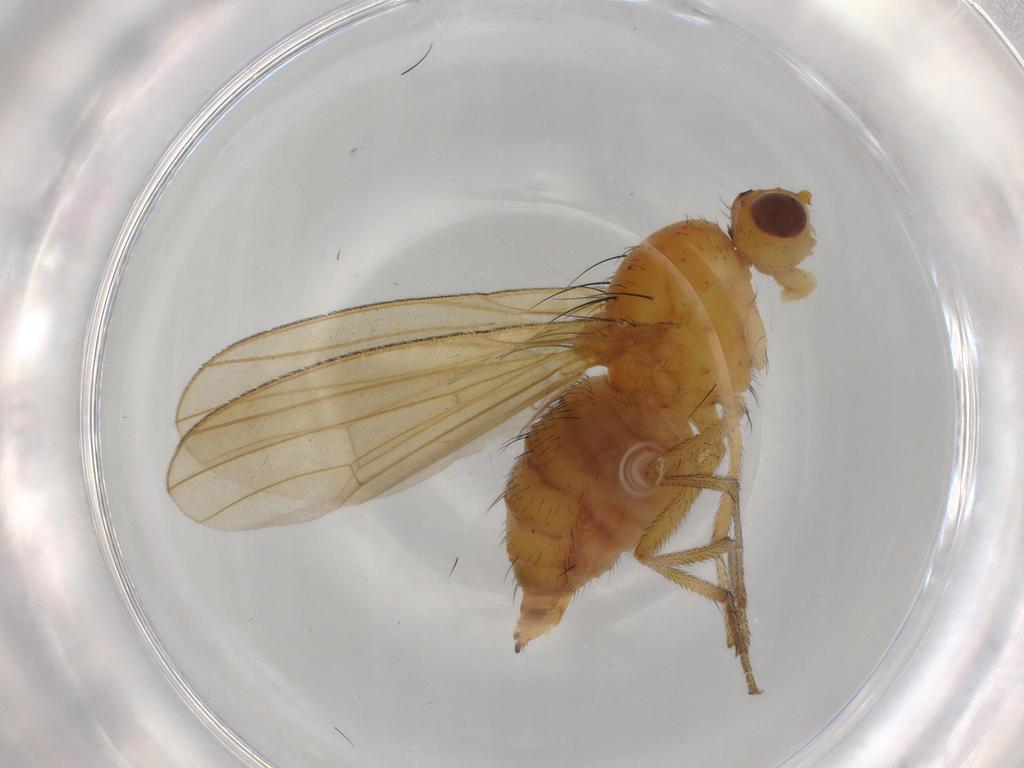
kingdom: Animalia
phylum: Arthropoda
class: Insecta
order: Diptera
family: Lauxaniidae
